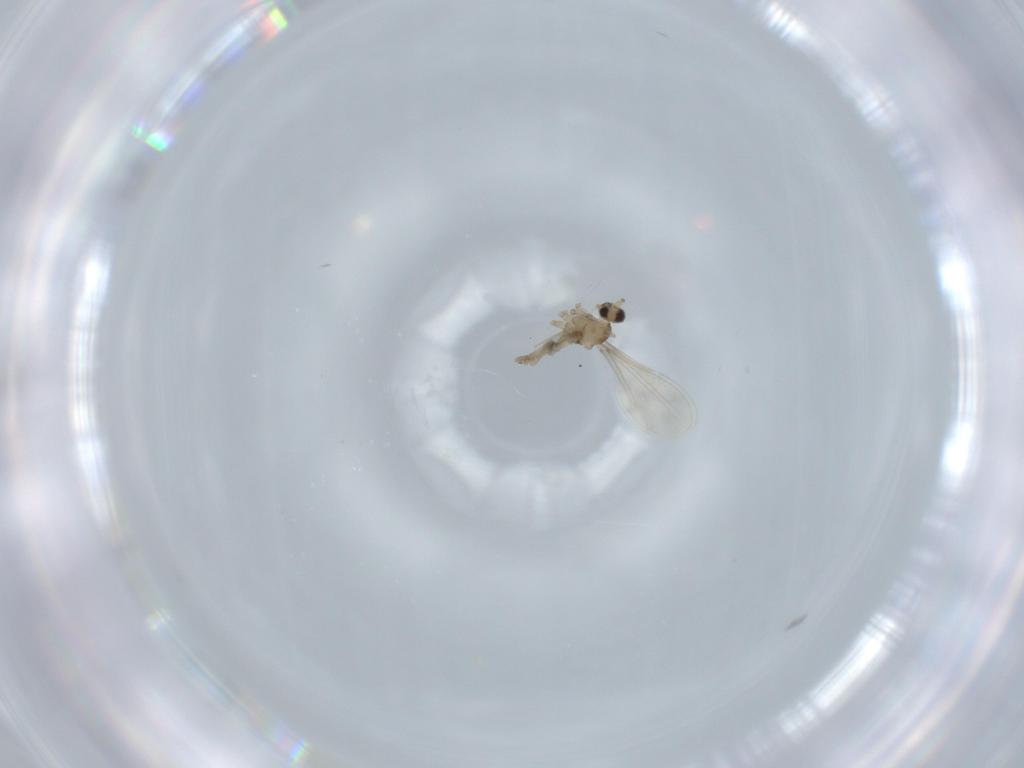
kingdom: Animalia
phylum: Arthropoda
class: Insecta
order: Diptera
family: Cecidomyiidae
